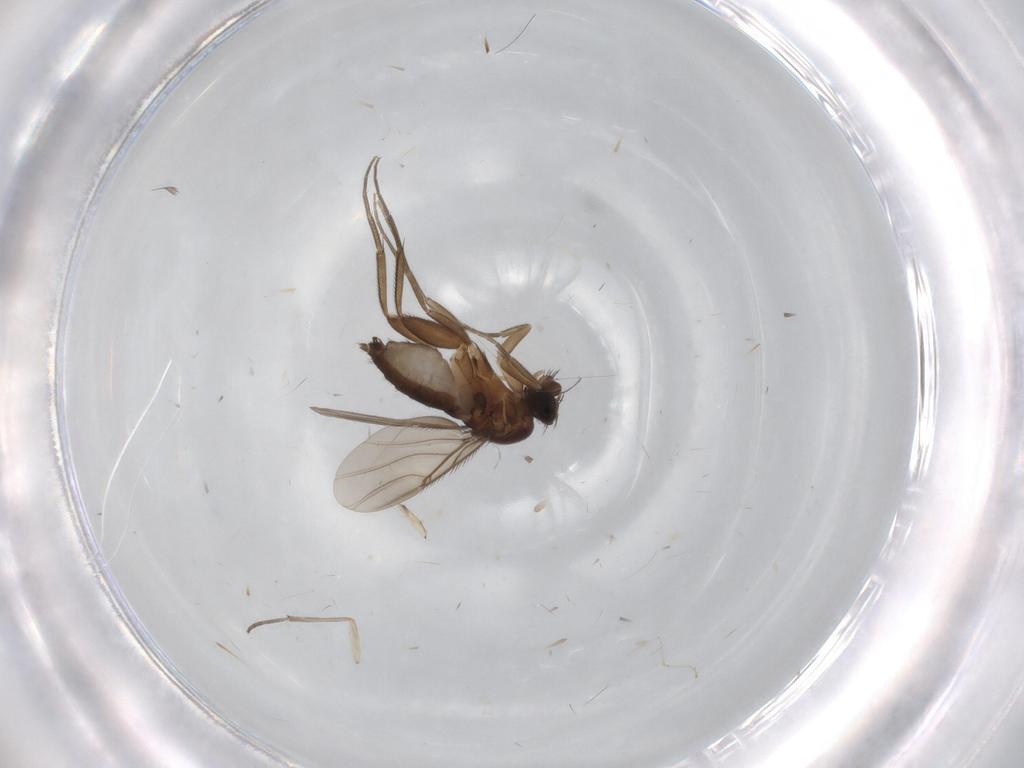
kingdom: Animalia
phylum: Arthropoda
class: Insecta
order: Diptera
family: Phoridae
